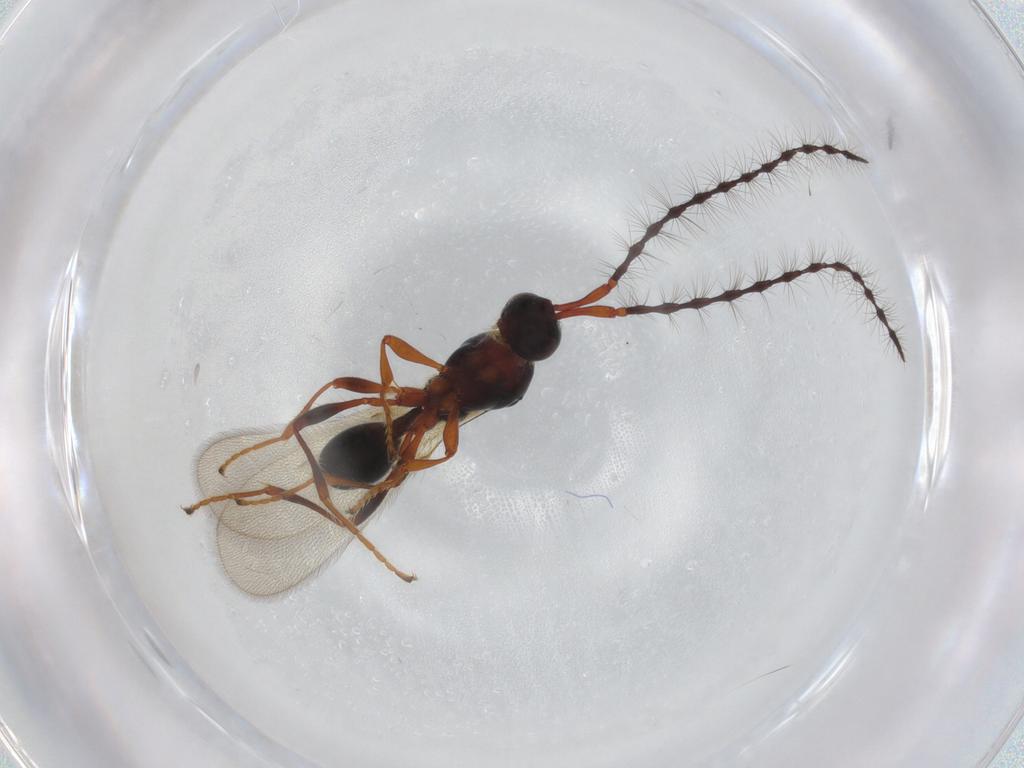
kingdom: Animalia
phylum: Arthropoda
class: Insecta
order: Hymenoptera
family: Diapriidae
